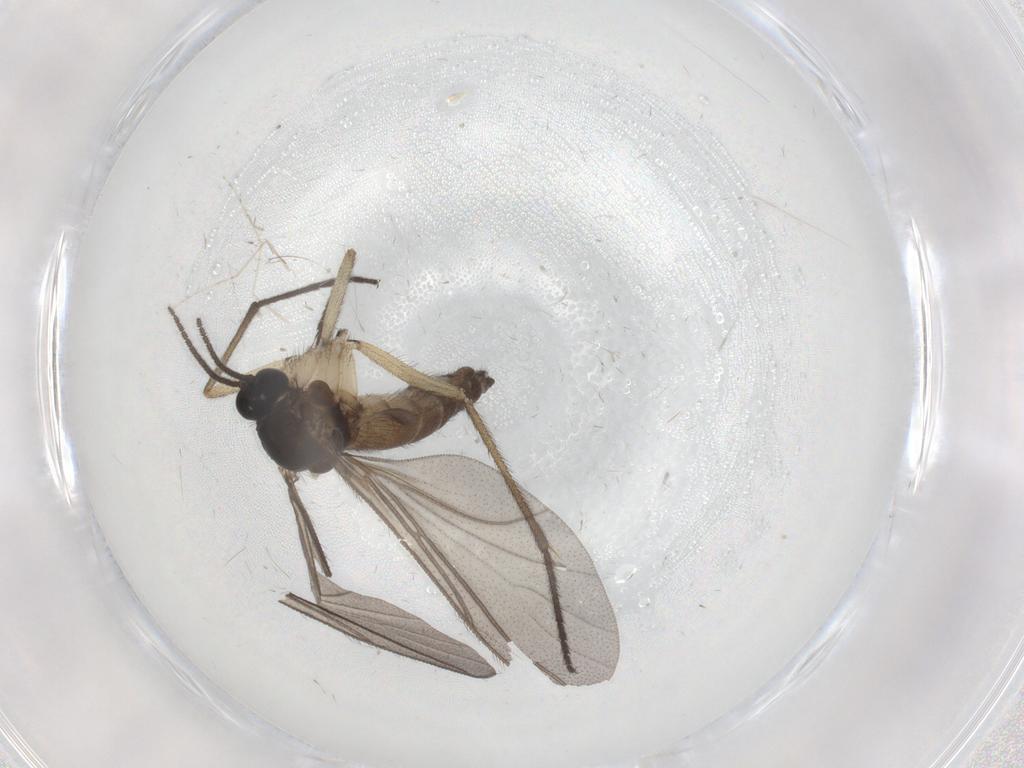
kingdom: Animalia
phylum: Arthropoda
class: Insecta
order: Diptera
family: Sciaridae
